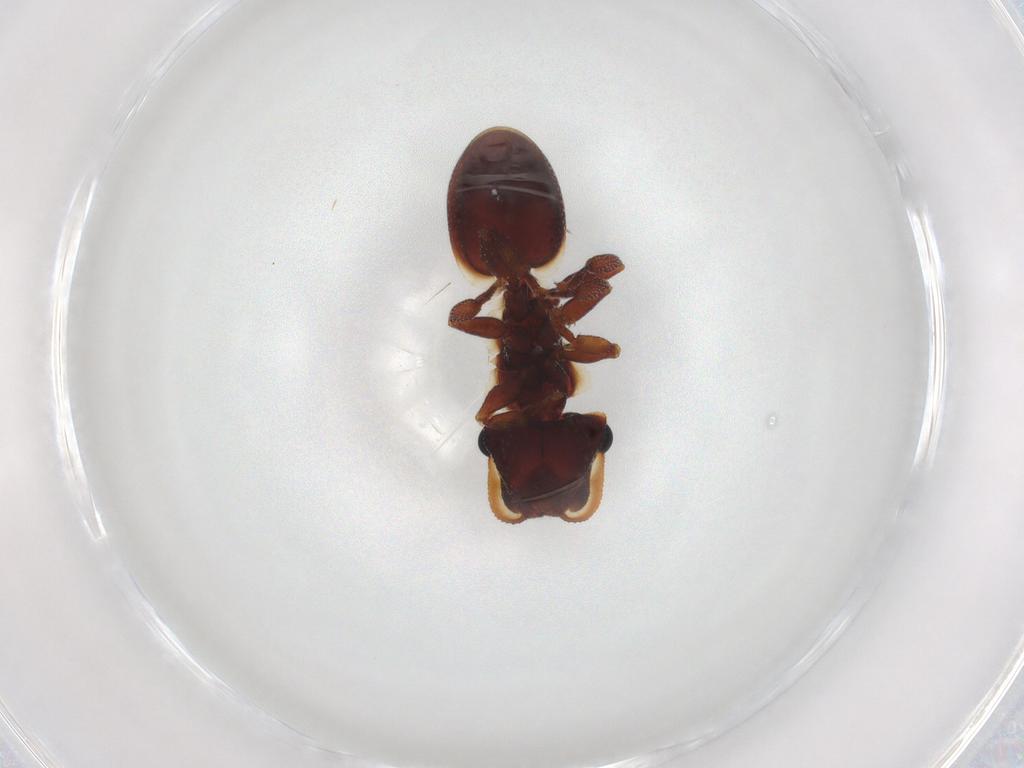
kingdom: Animalia
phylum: Arthropoda
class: Insecta
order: Hymenoptera
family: Formicidae
